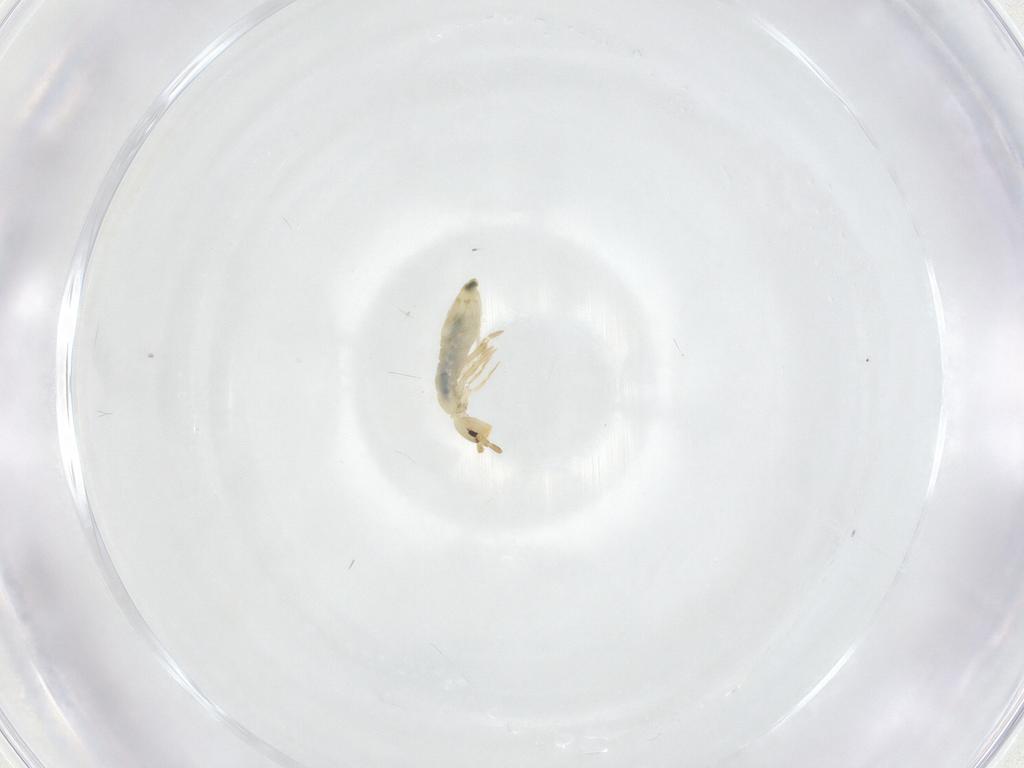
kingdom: Animalia
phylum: Arthropoda
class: Collembola
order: Entomobryomorpha
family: Entomobryidae
